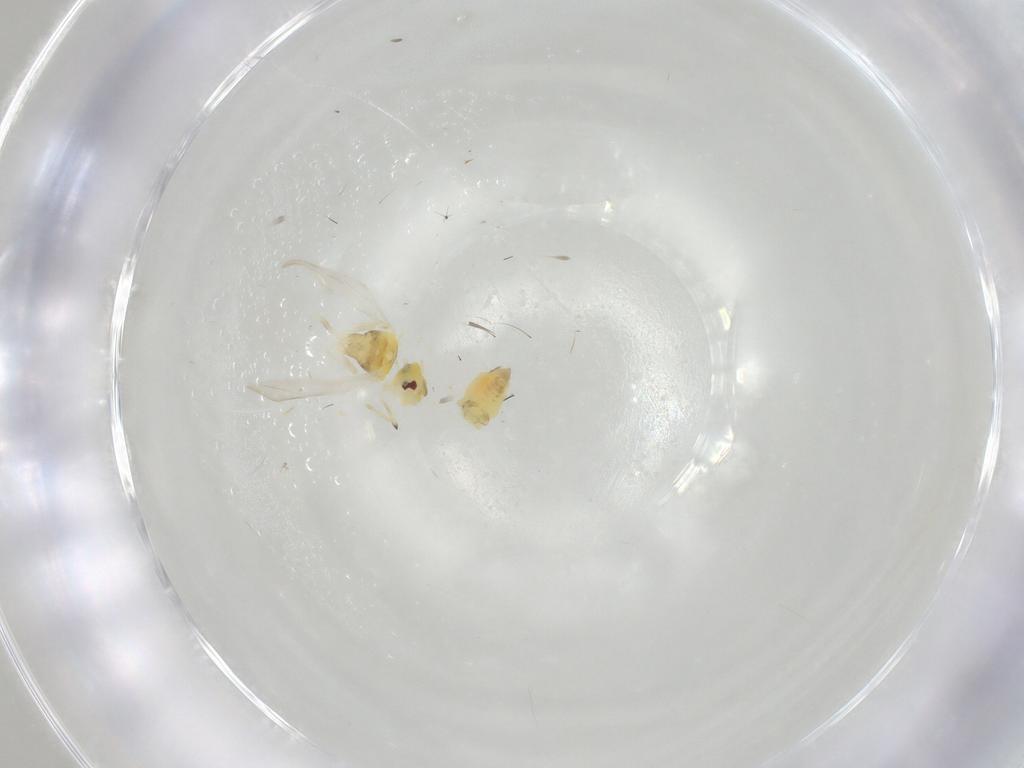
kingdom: Animalia
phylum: Arthropoda
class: Insecta
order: Hemiptera
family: Aleyrodidae
